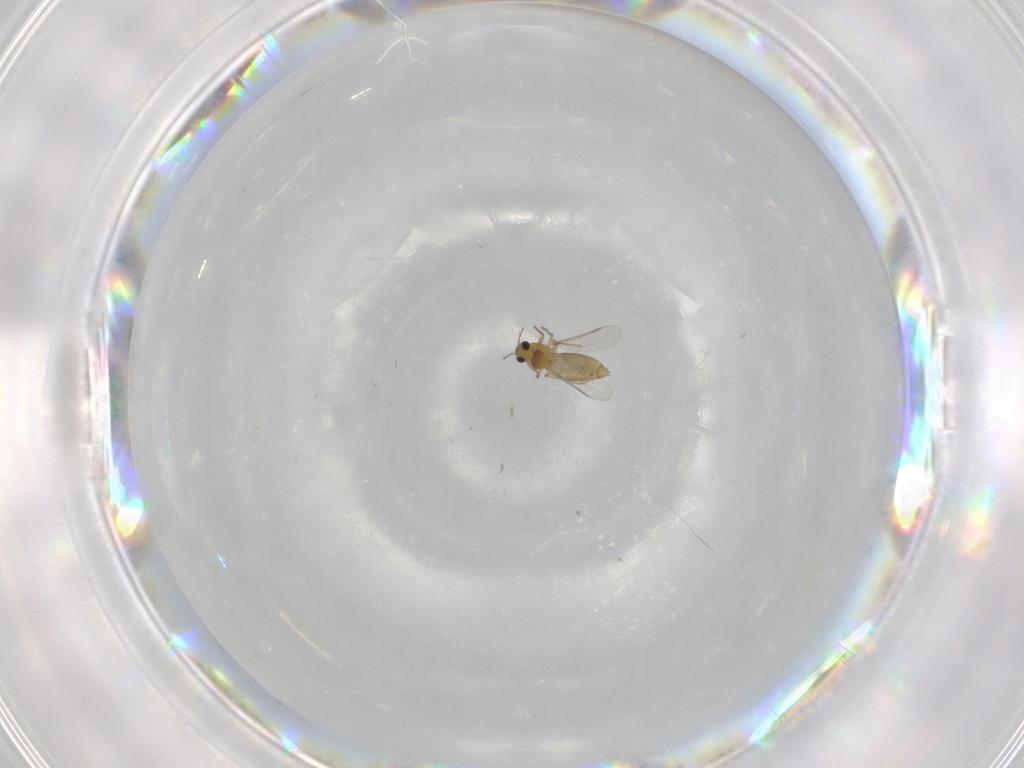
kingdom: Animalia
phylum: Arthropoda
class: Insecta
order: Diptera
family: Chironomidae
